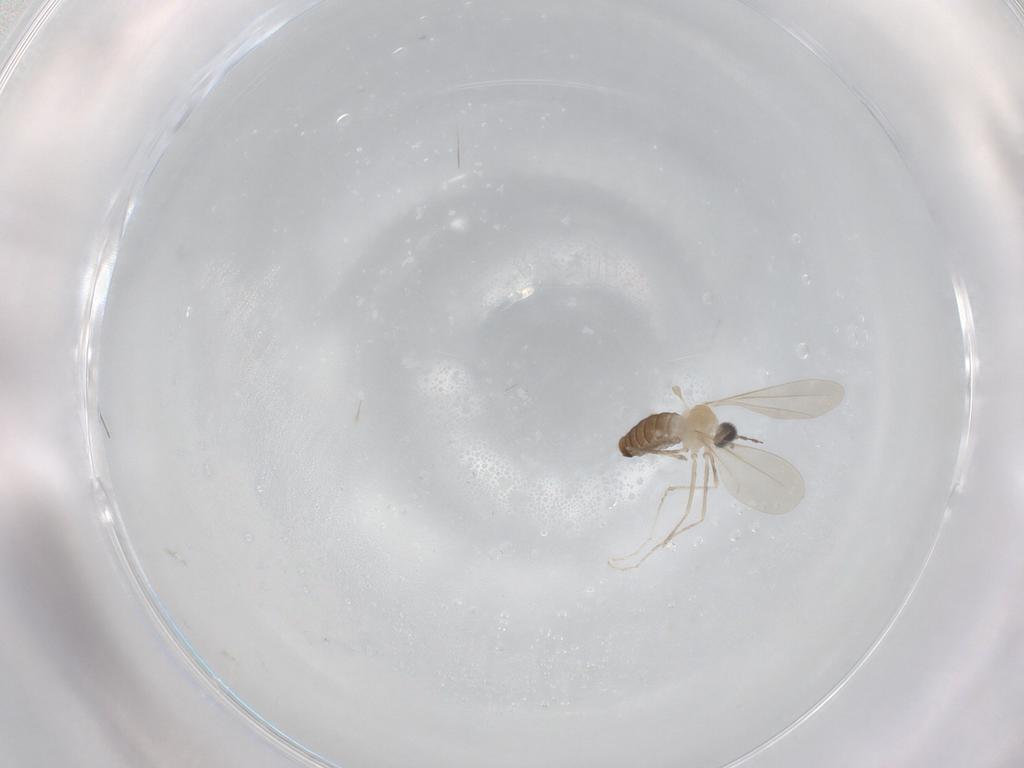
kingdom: Animalia
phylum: Arthropoda
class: Insecta
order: Diptera
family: Cecidomyiidae
